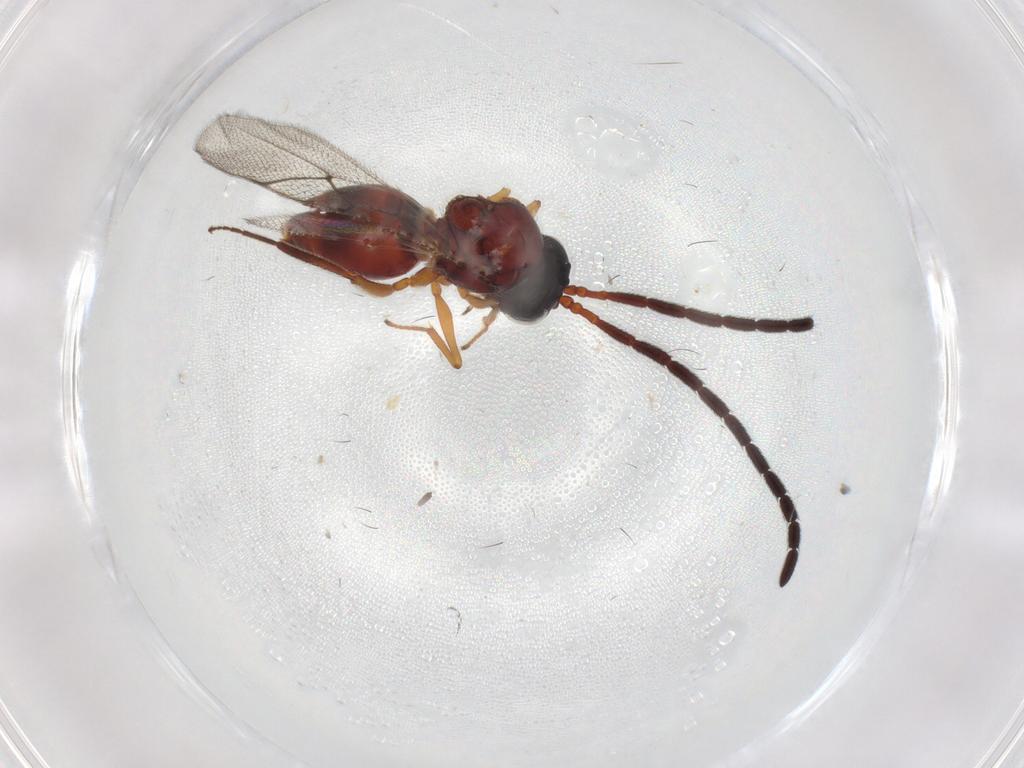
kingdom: Animalia
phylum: Arthropoda
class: Insecta
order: Hymenoptera
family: Figitidae
